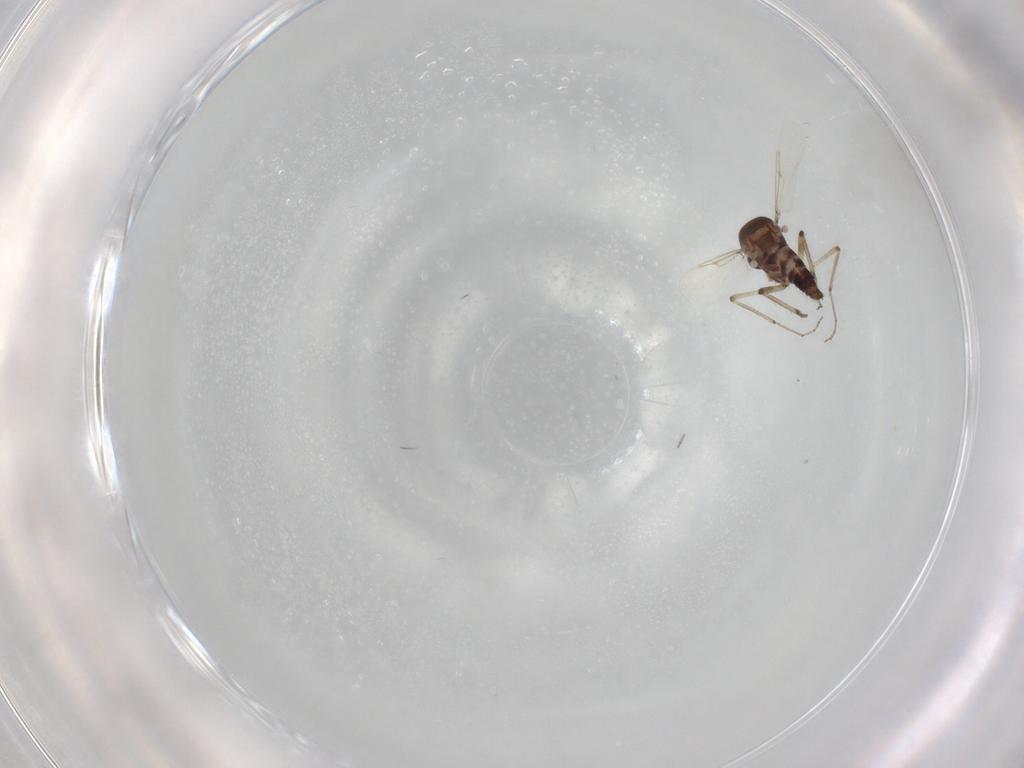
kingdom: Animalia
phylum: Arthropoda
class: Insecta
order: Diptera
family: Ceratopogonidae
